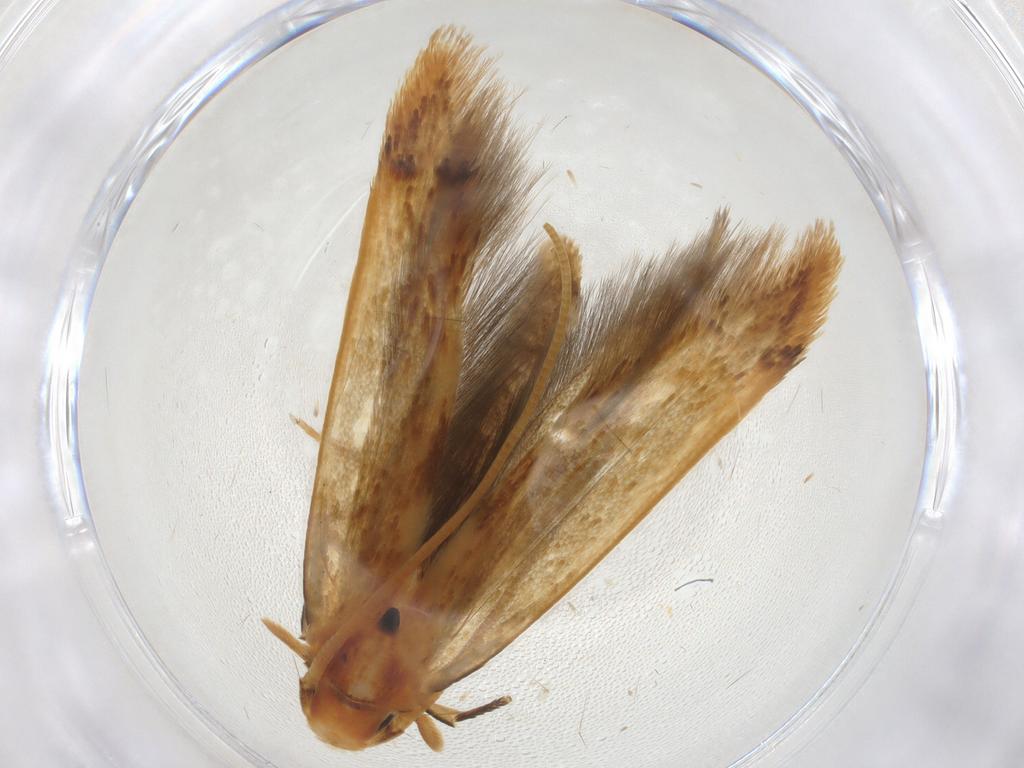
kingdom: Animalia
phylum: Arthropoda
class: Insecta
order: Lepidoptera
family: Tineidae
